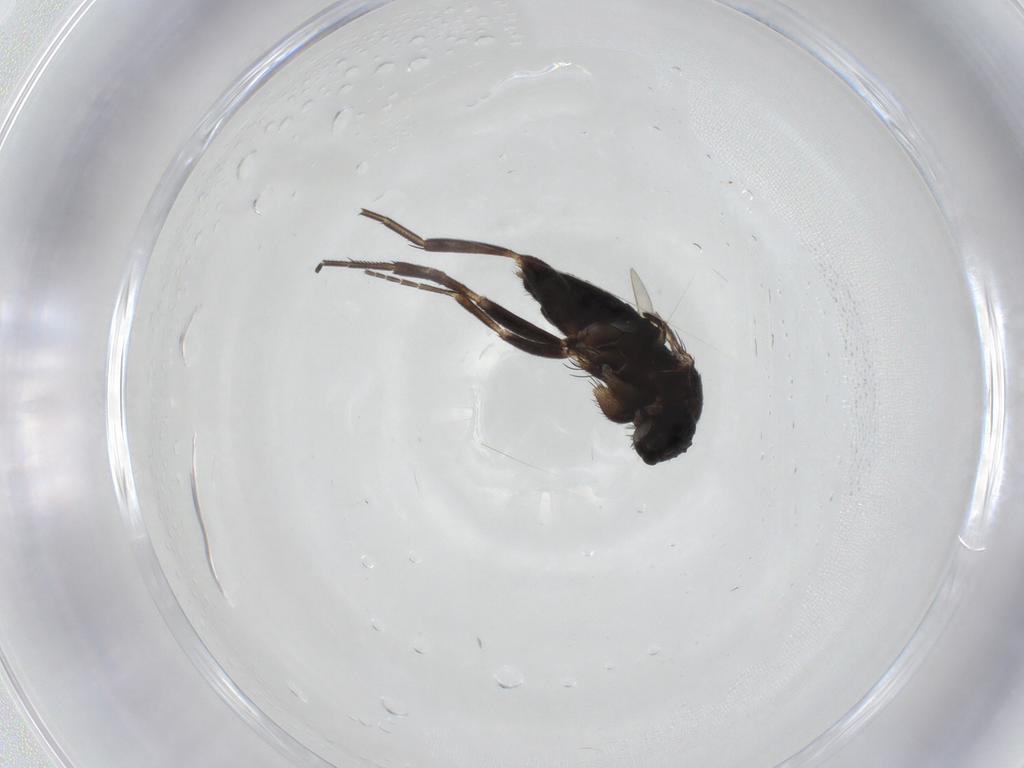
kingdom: Animalia
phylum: Arthropoda
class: Insecta
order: Diptera
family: Phoridae
